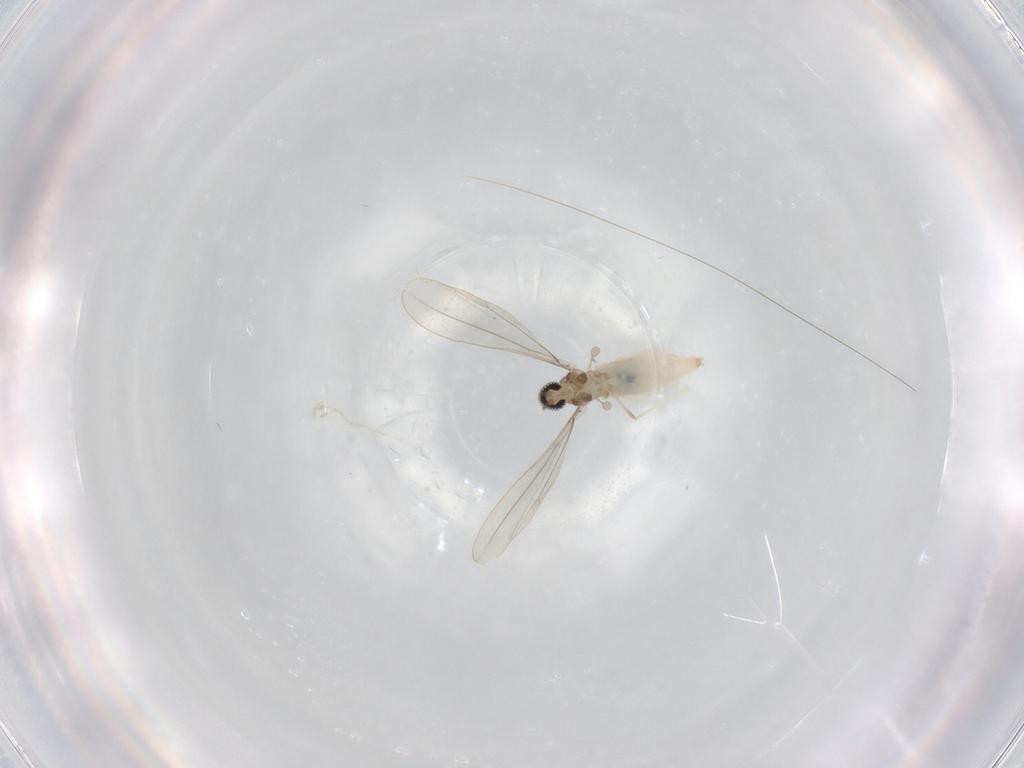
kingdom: Animalia
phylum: Arthropoda
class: Insecta
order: Diptera
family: Cecidomyiidae
